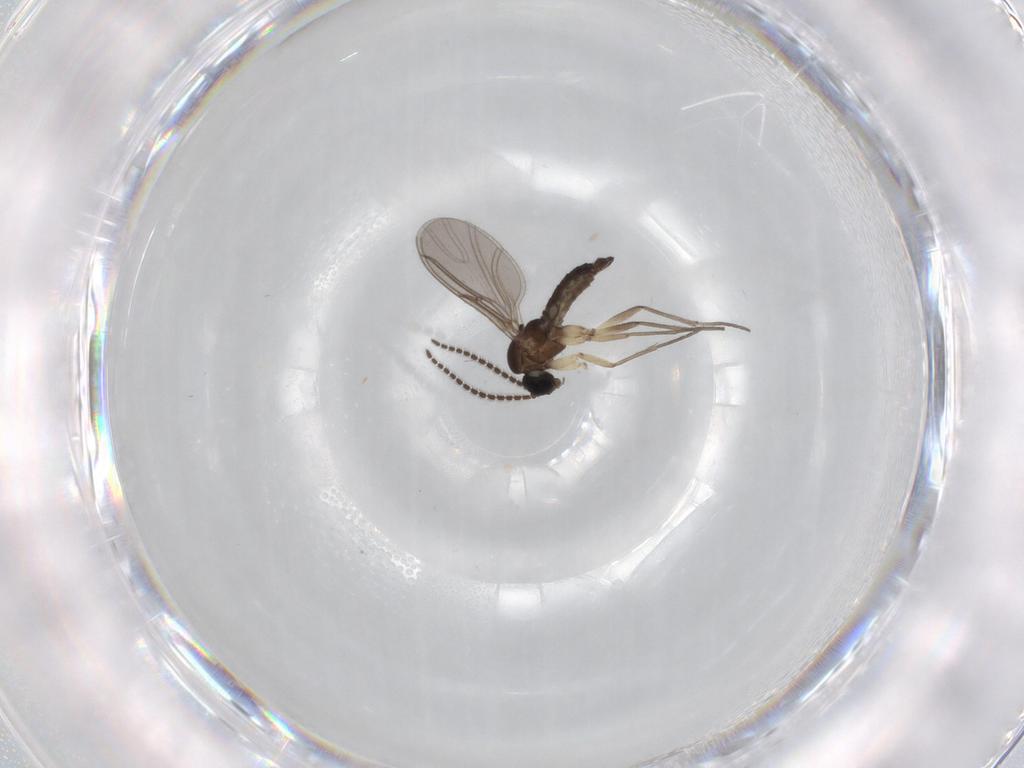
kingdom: Animalia
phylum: Arthropoda
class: Insecta
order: Diptera
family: Sciaridae
